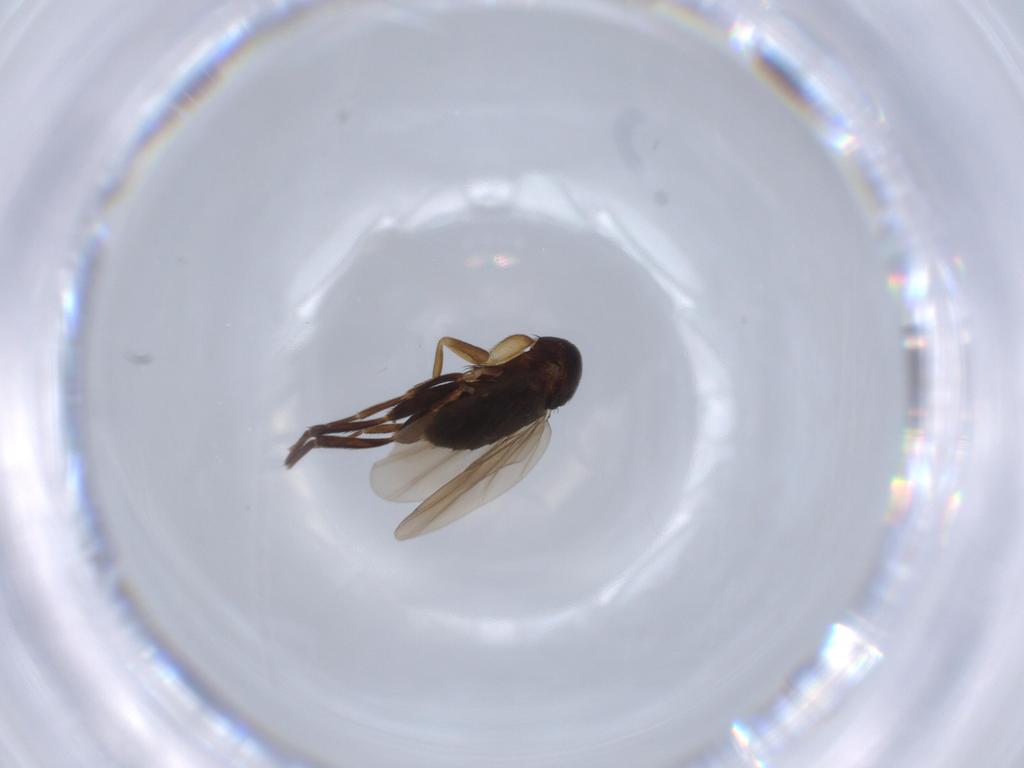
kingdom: Animalia
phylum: Arthropoda
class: Insecta
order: Diptera
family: Phoridae
